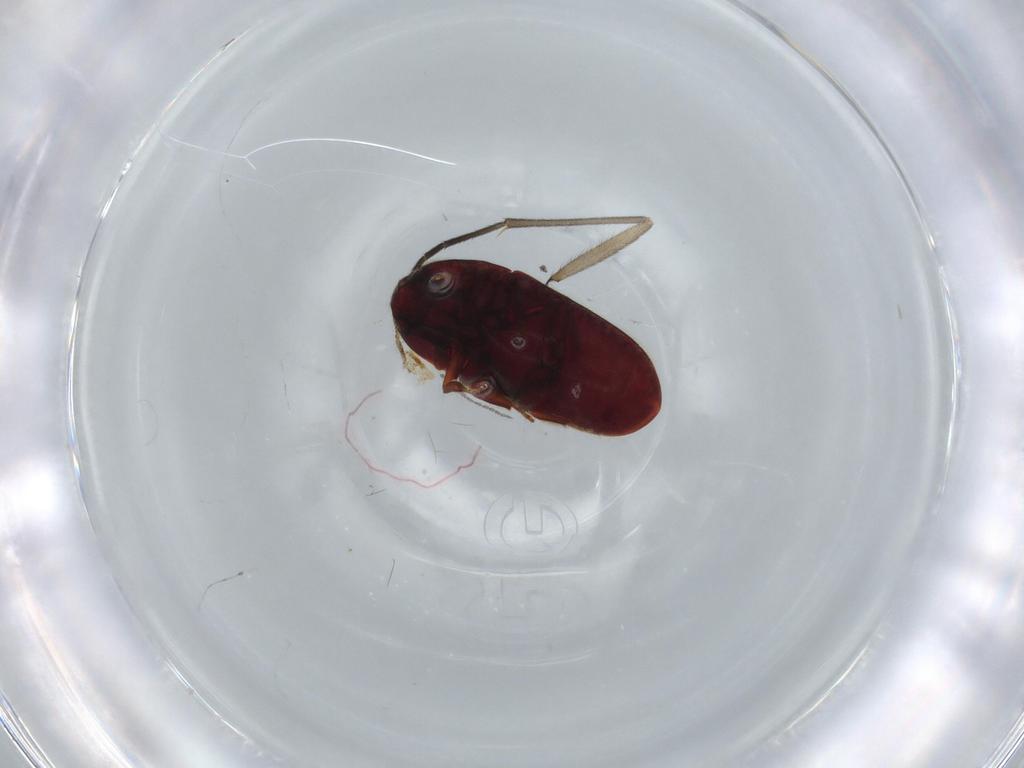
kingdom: Animalia
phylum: Arthropoda
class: Insecta
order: Coleoptera
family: Throscidae
